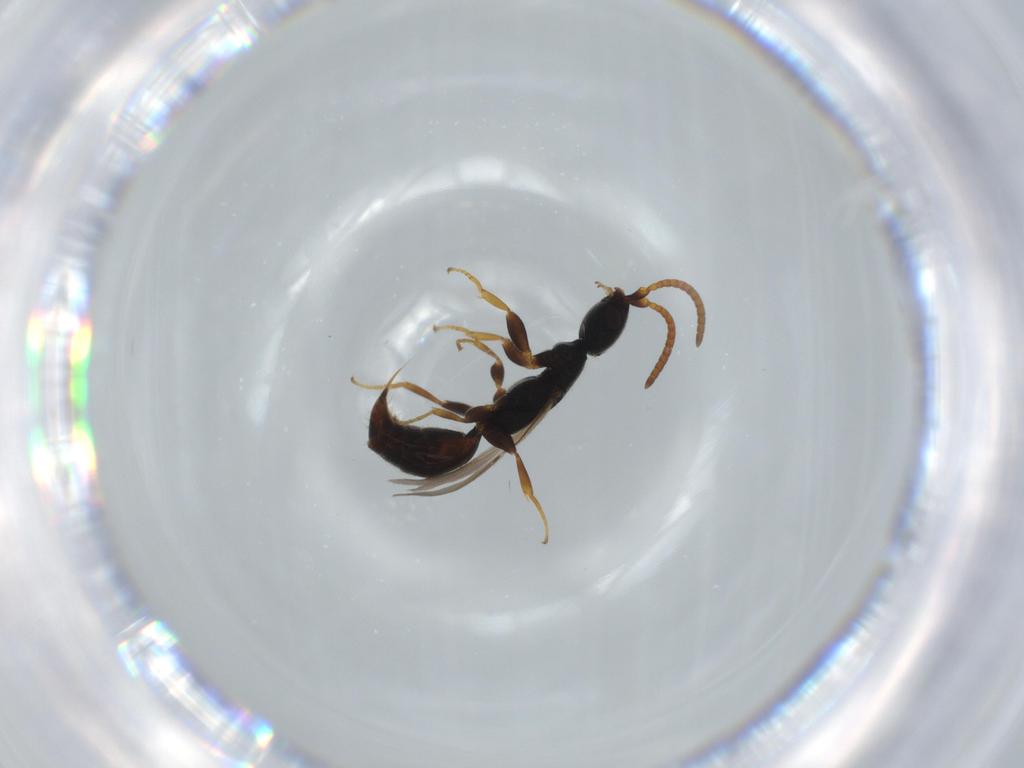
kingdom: Animalia
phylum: Arthropoda
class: Insecta
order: Hymenoptera
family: Bethylidae
